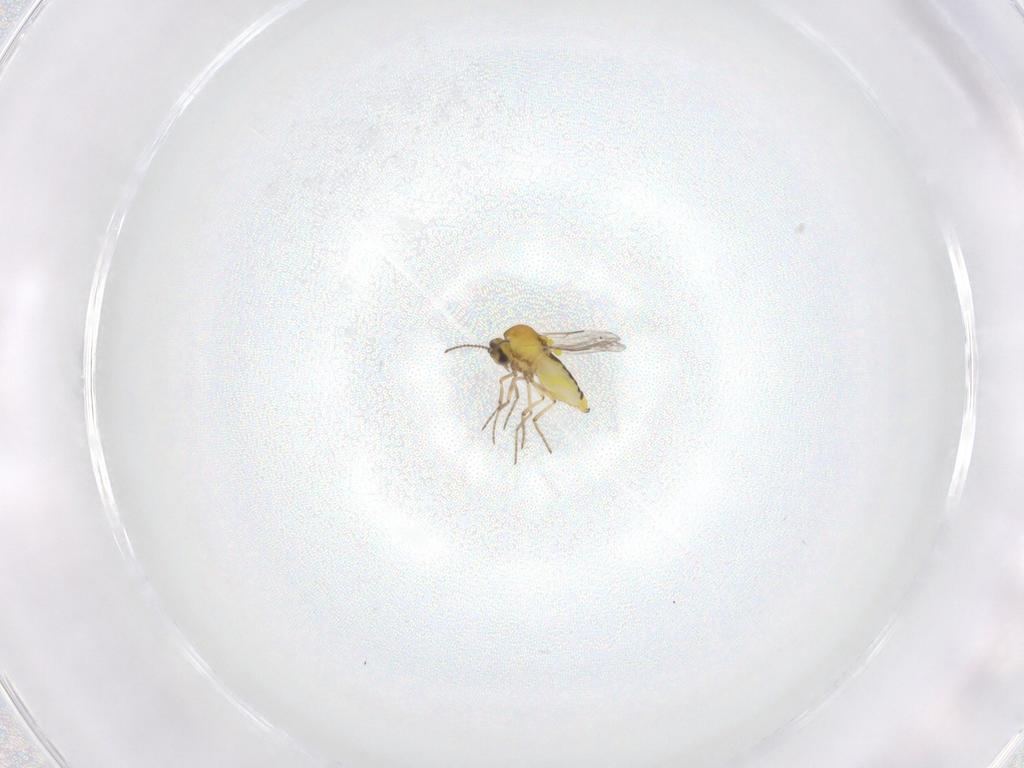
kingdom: Animalia
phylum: Arthropoda
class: Insecta
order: Diptera
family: Ceratopogonidae
